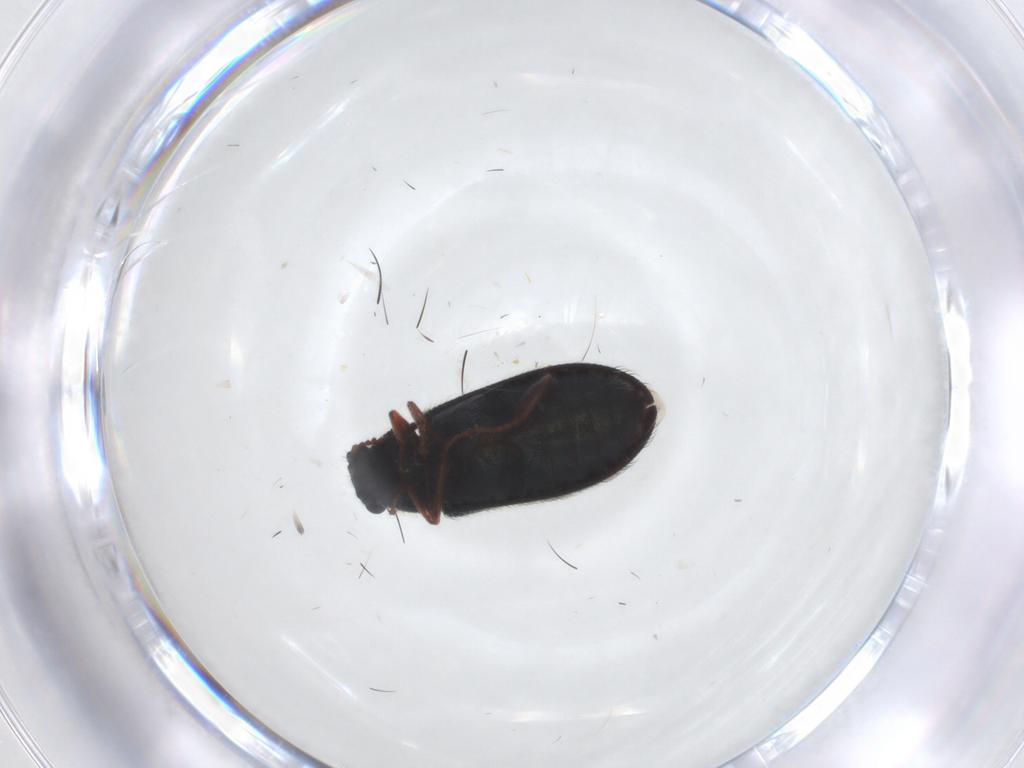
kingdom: Animalia
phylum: Arthropoda
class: Insecta
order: Coleoptera
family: Melyridae
